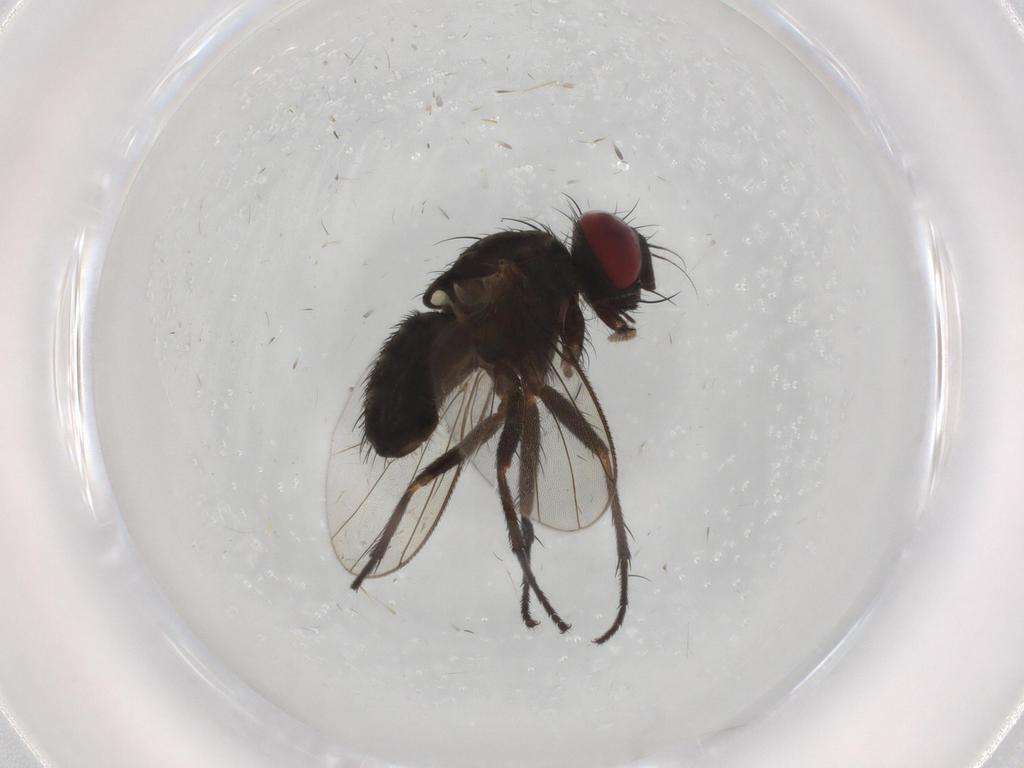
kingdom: Animalia
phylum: Arthropoda
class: Insecta
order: Diptera
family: Muscidae
